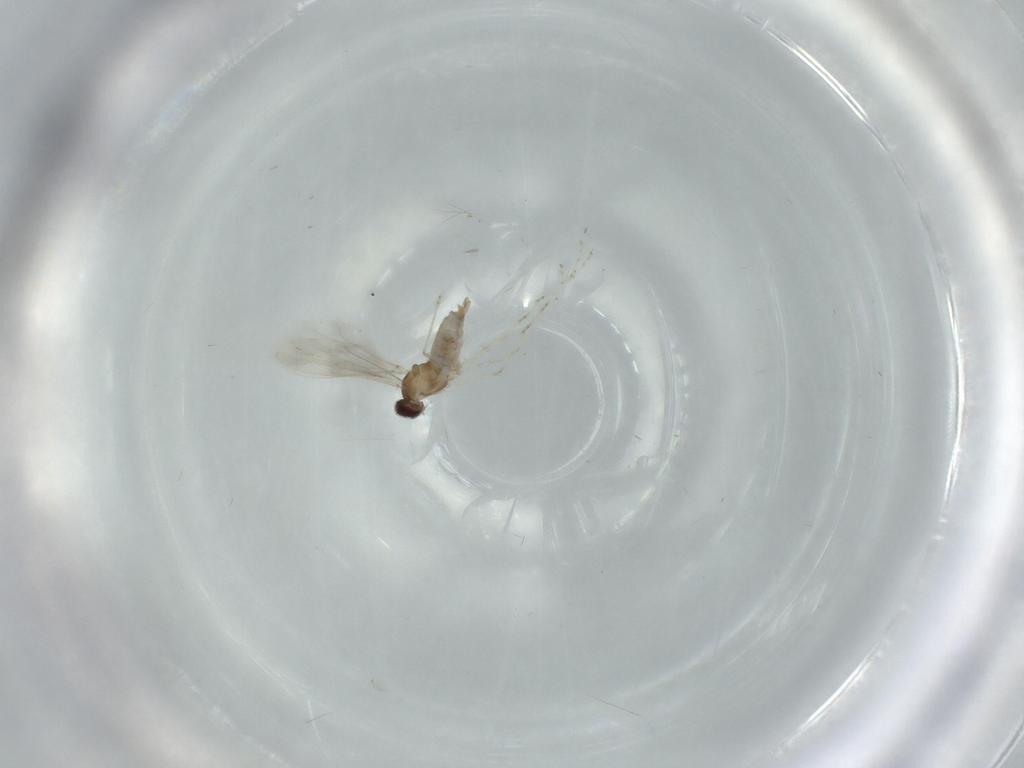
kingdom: Animalia
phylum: Arthropoda
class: Insecta
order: Diptera
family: Cecidomyiidae
